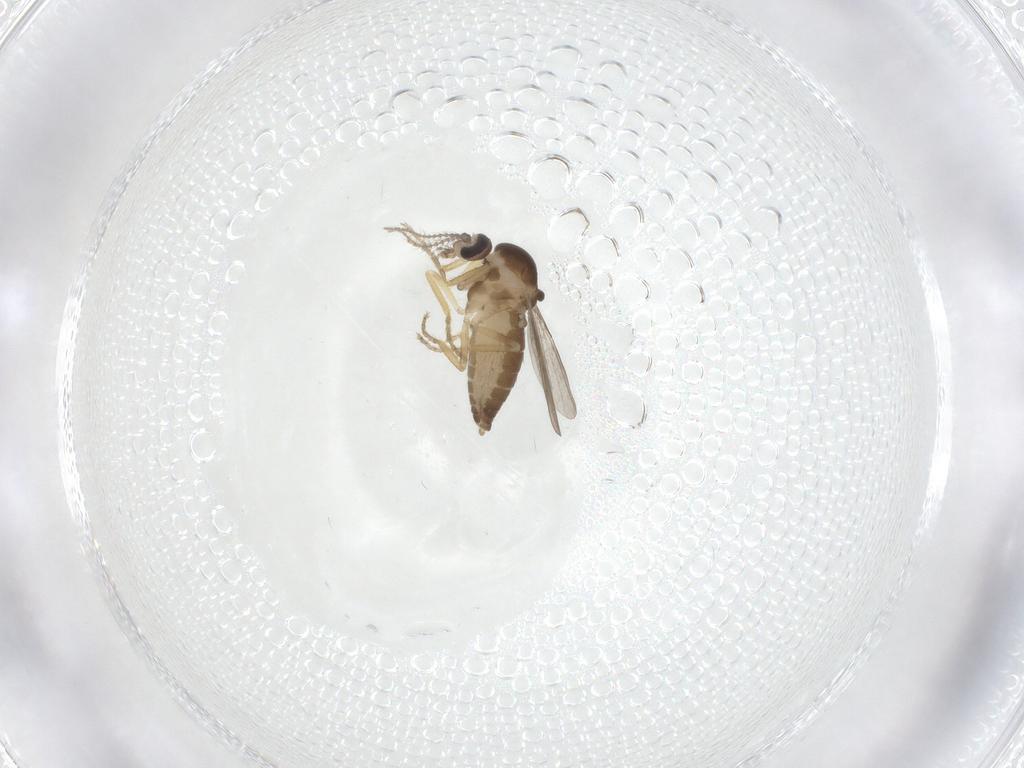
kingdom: Animalia
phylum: Arthropoda
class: Insecta
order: Diptera
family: Ceratopogonidae
